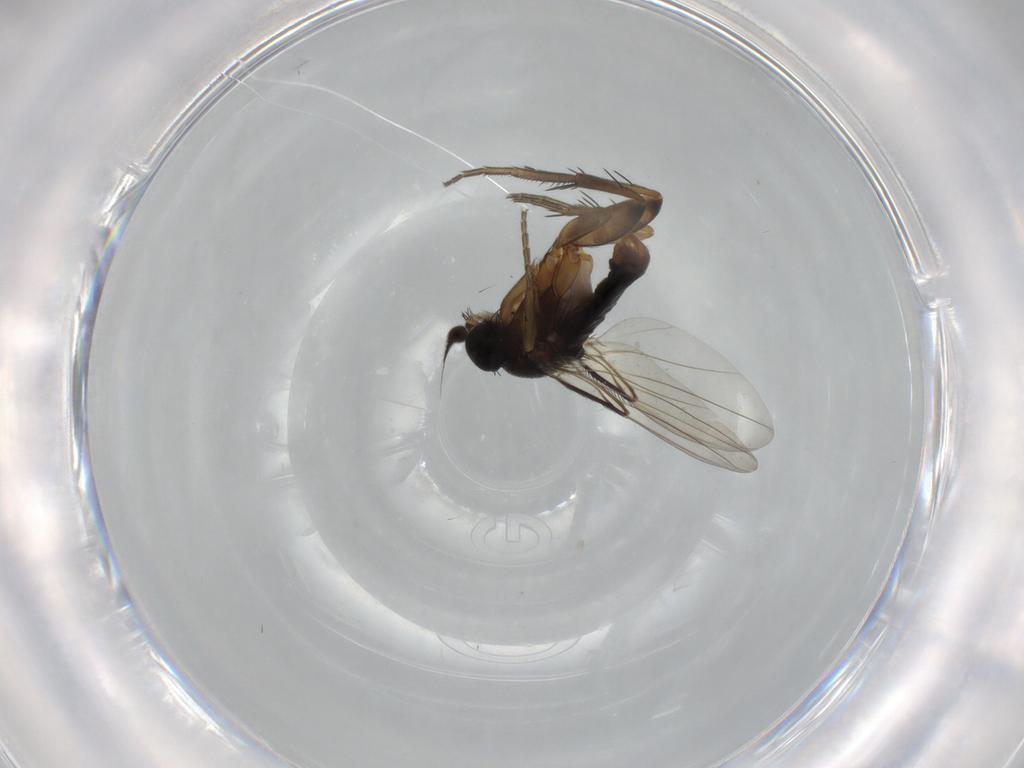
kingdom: Animalia
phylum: Arthropoda
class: Insecta
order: Diptera
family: Phoridae
